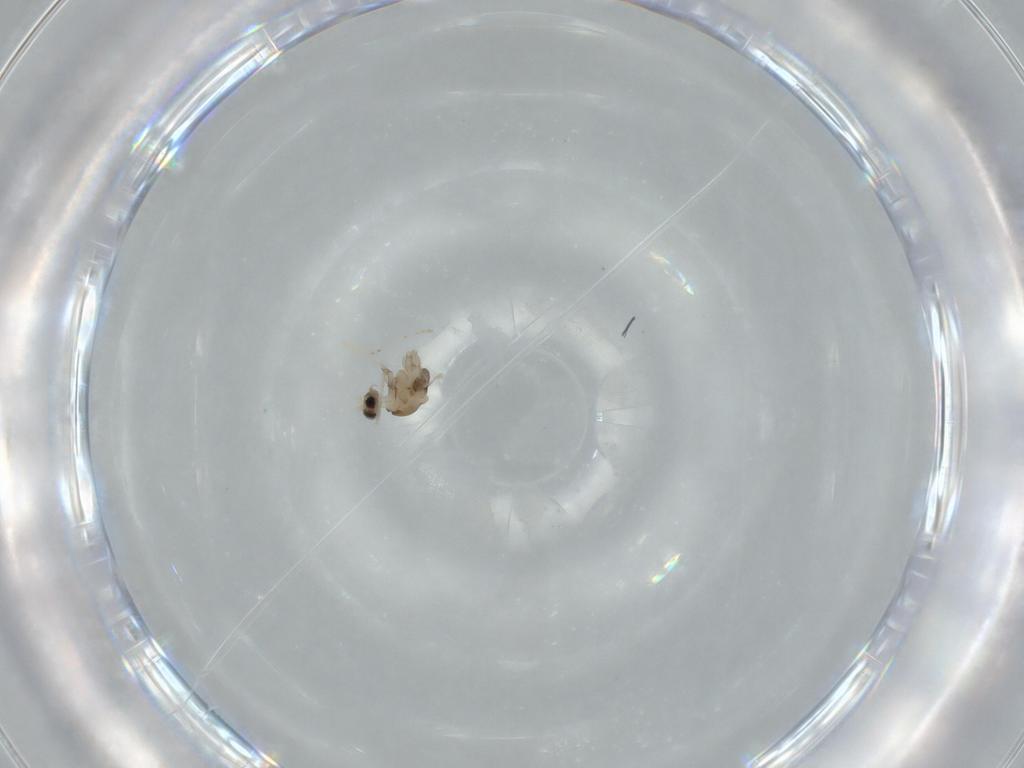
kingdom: Animalia
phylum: Arthropoda
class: Insecta
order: Diptera
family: Cecidomyiidae
